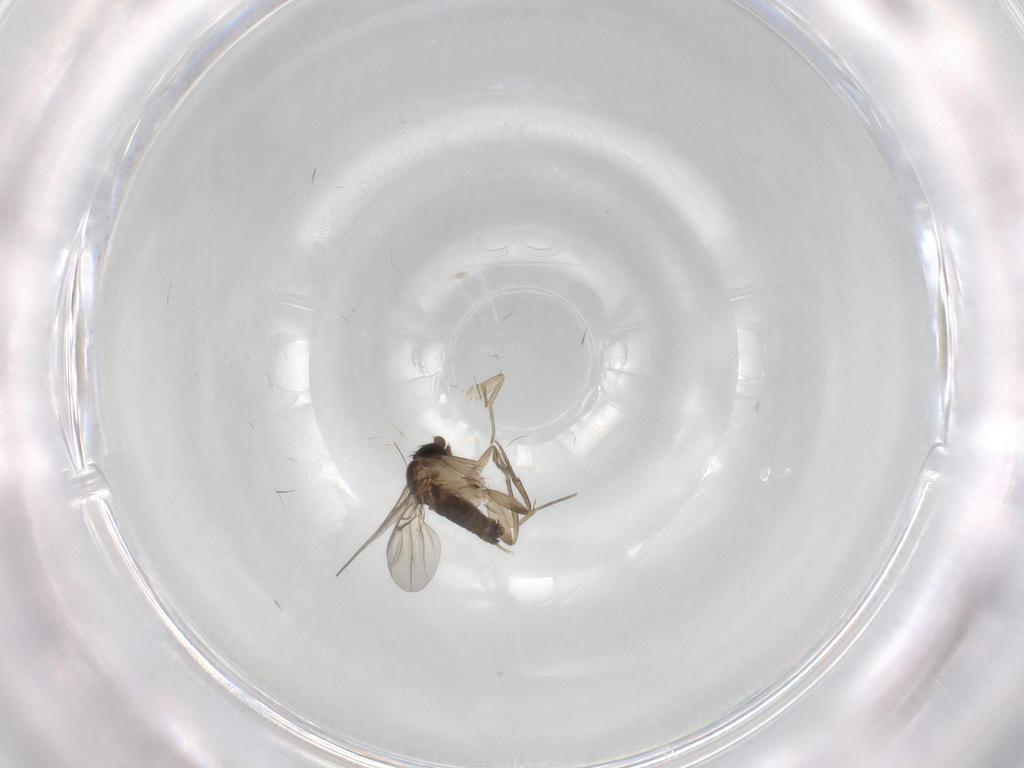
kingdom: Animalia
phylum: Arthropoda
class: Insecta
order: Diptera
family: Phoridae
